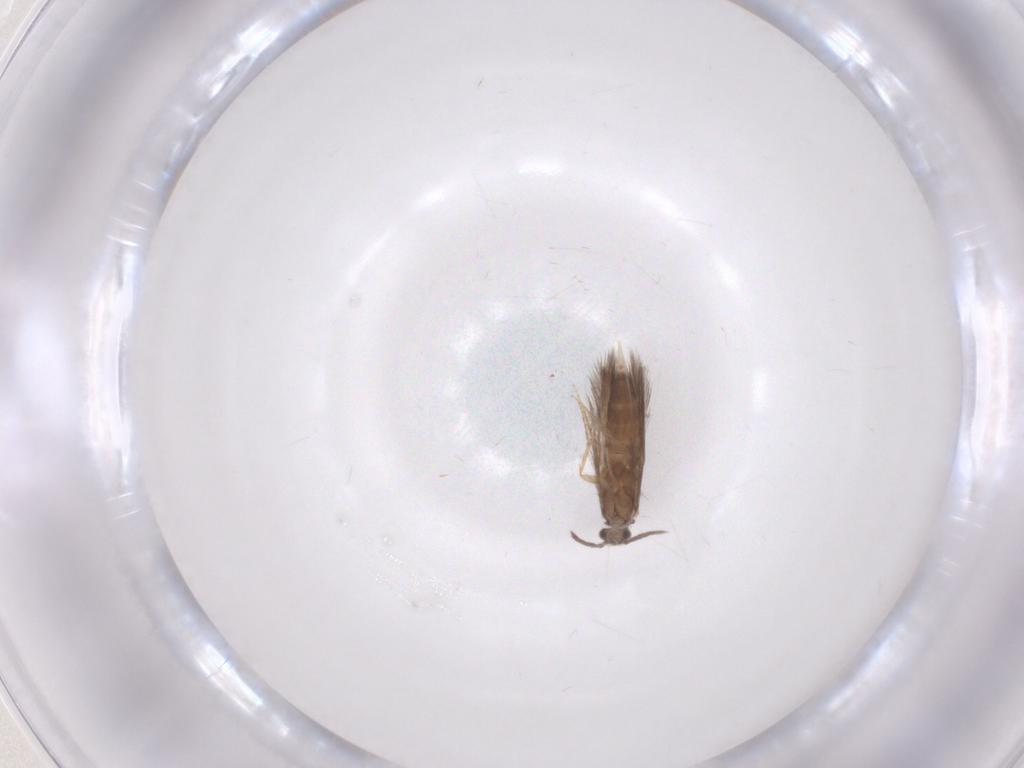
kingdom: Animalia
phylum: Arthropoda
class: Insecta
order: Trichoptera
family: Hydroptilidae
